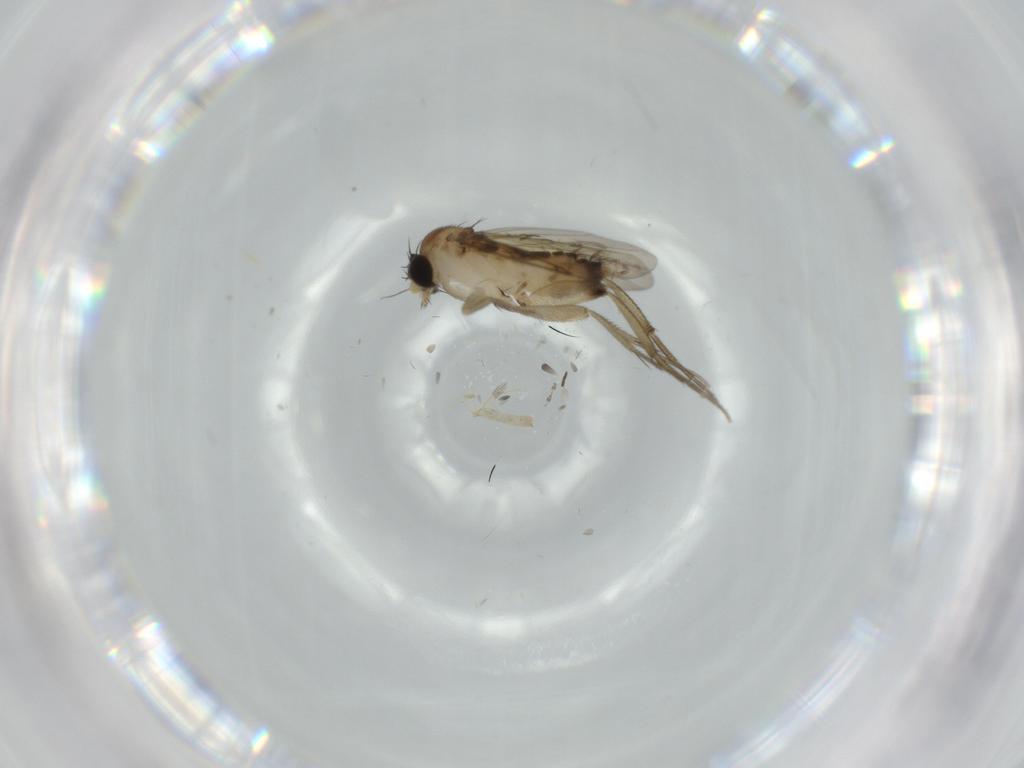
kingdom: Animalia
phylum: Arthropoda
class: Insecta
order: Diptera
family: Phoridae
